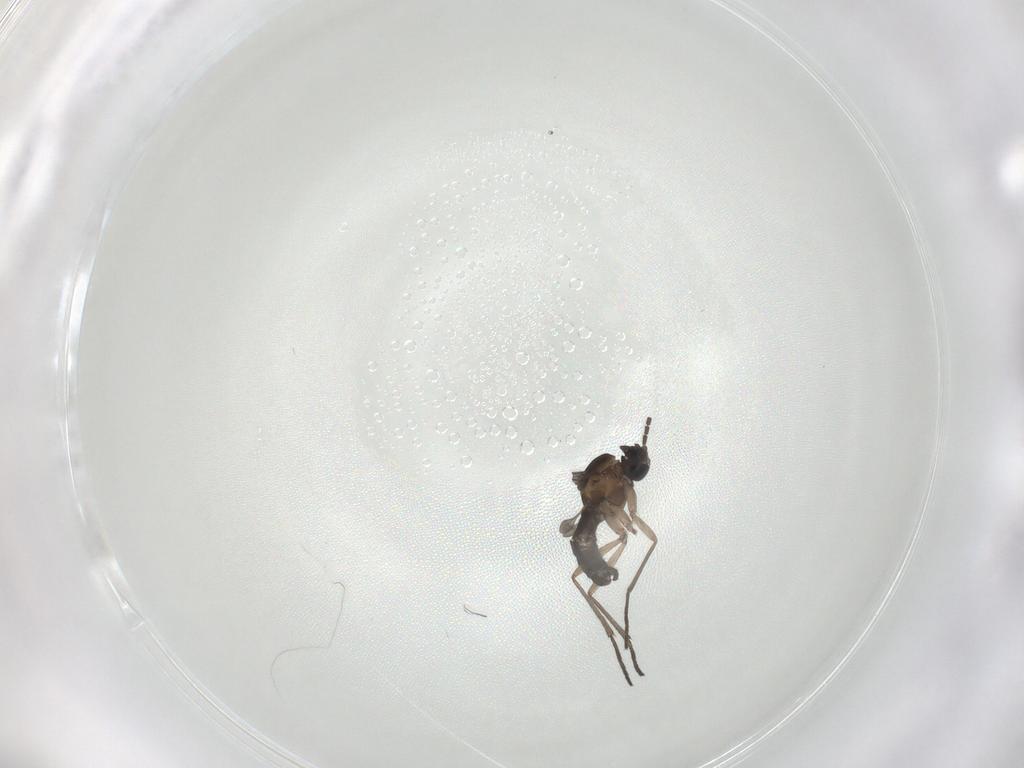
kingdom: Animalia
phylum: Arthropoda
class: Insecta
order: Diptera
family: Sciaridae
